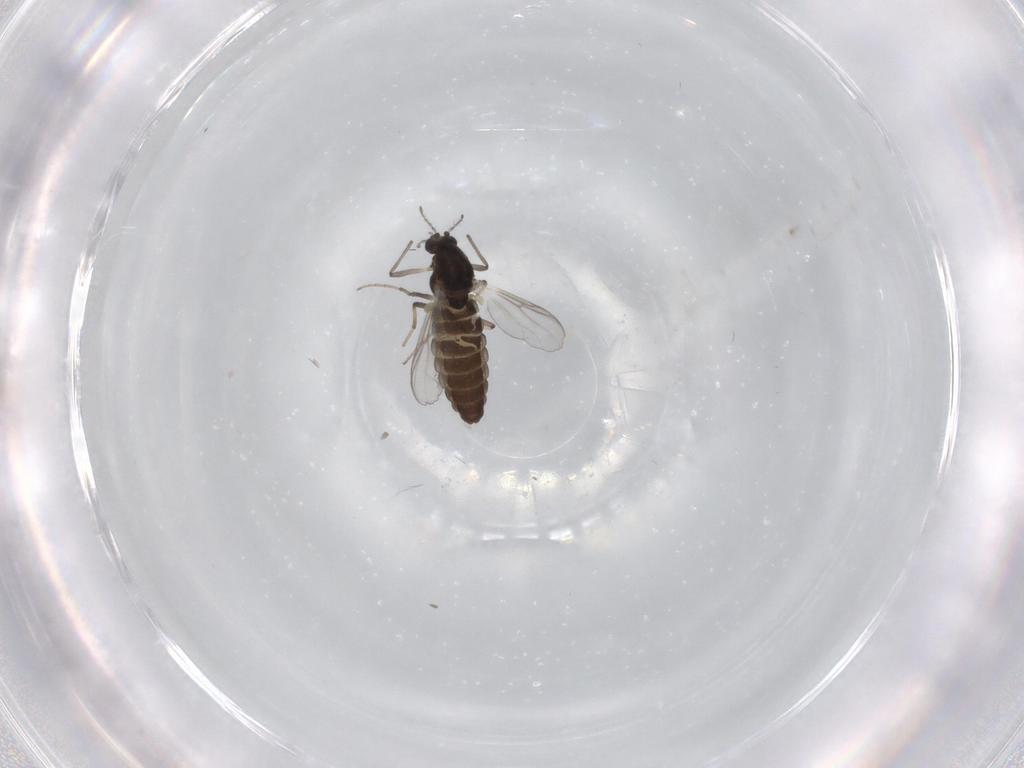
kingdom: Animalia
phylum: Arthropoda
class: Insecta
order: Diptera
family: Chironomidae
